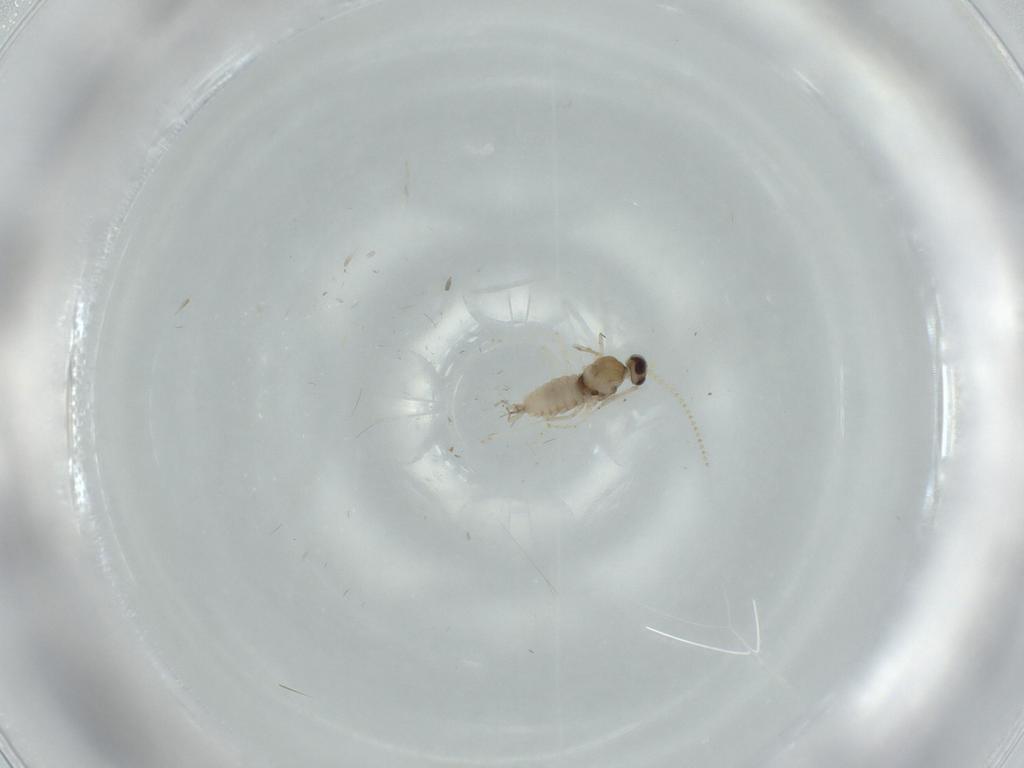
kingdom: Animalia
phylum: Arthropoda
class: Insecta
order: Diptera
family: Cecidomyiidae
